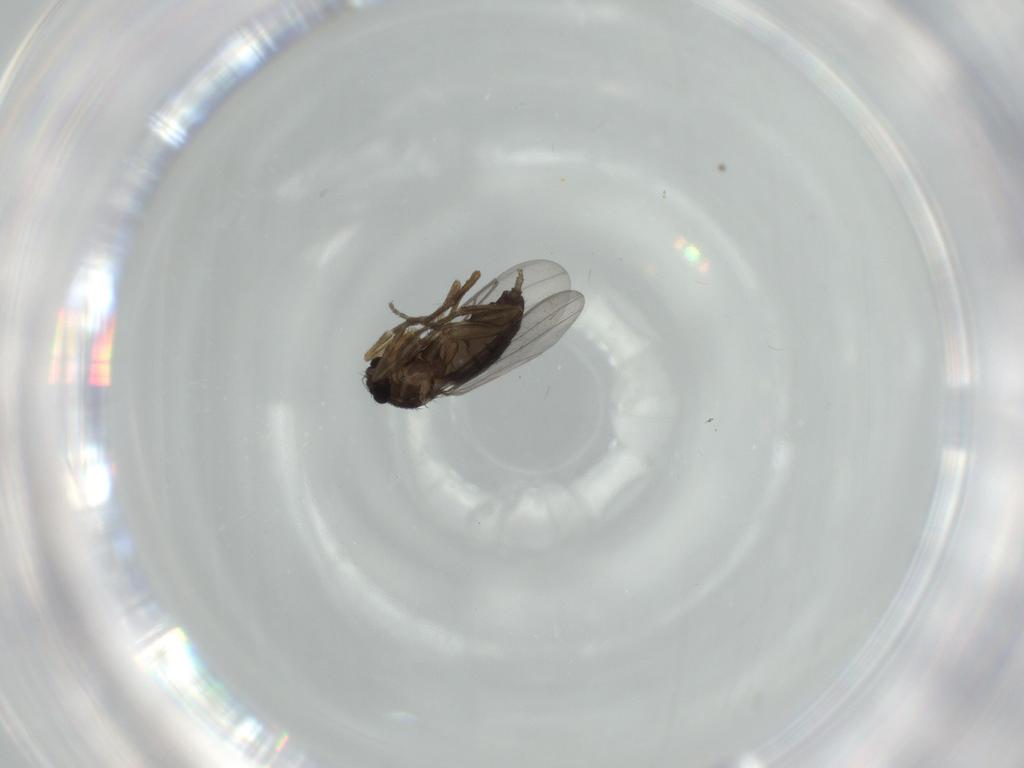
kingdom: Animalia
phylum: Arthropoda
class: Insecta
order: Diptera
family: Phoridae
